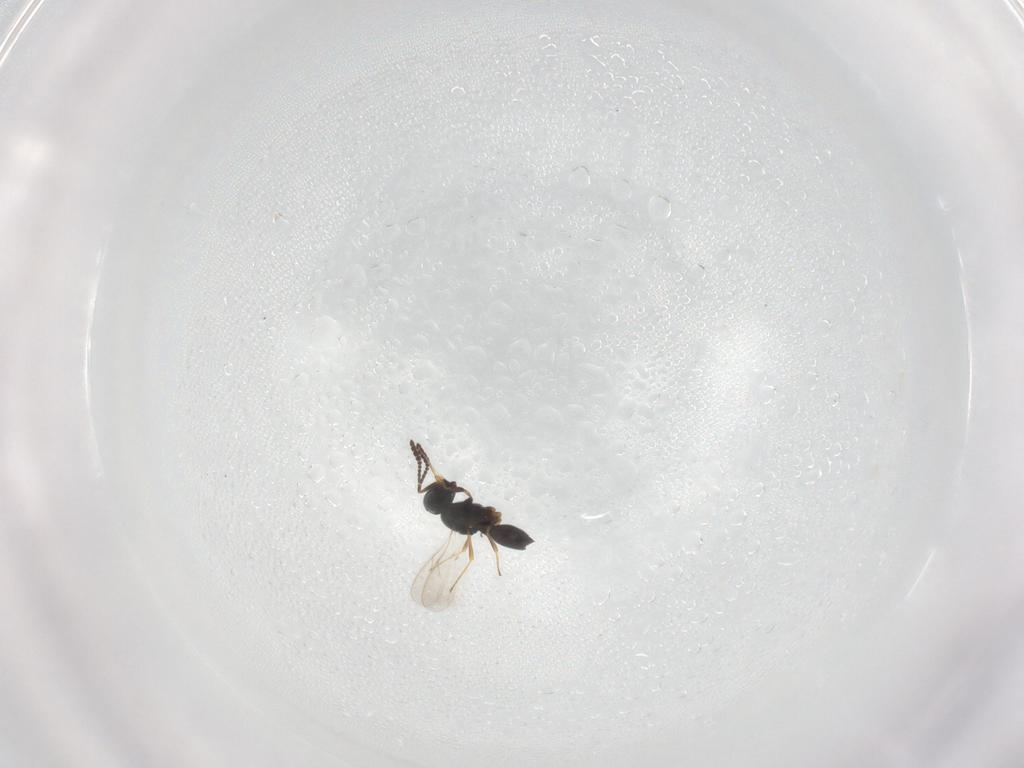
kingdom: Animalia
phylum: Arthropoda
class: Insecta
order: Hymenoptera
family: Scelionidae
